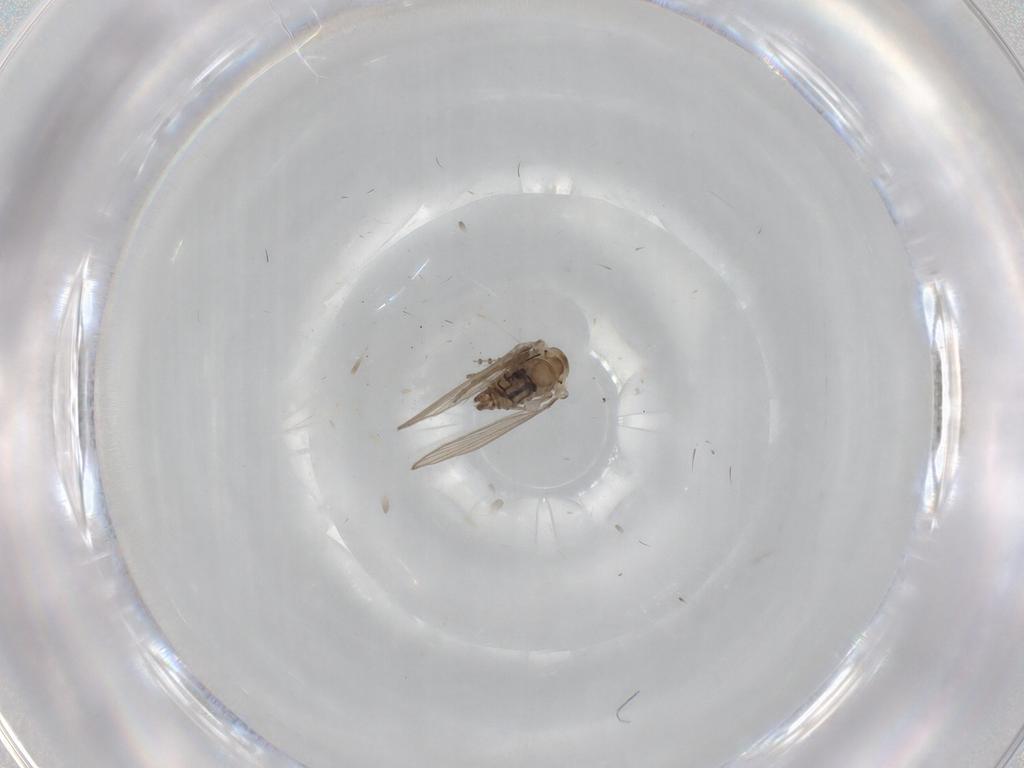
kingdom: Animalia
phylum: Arthropoda
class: Insecta
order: Diptera
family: Psychodidae
